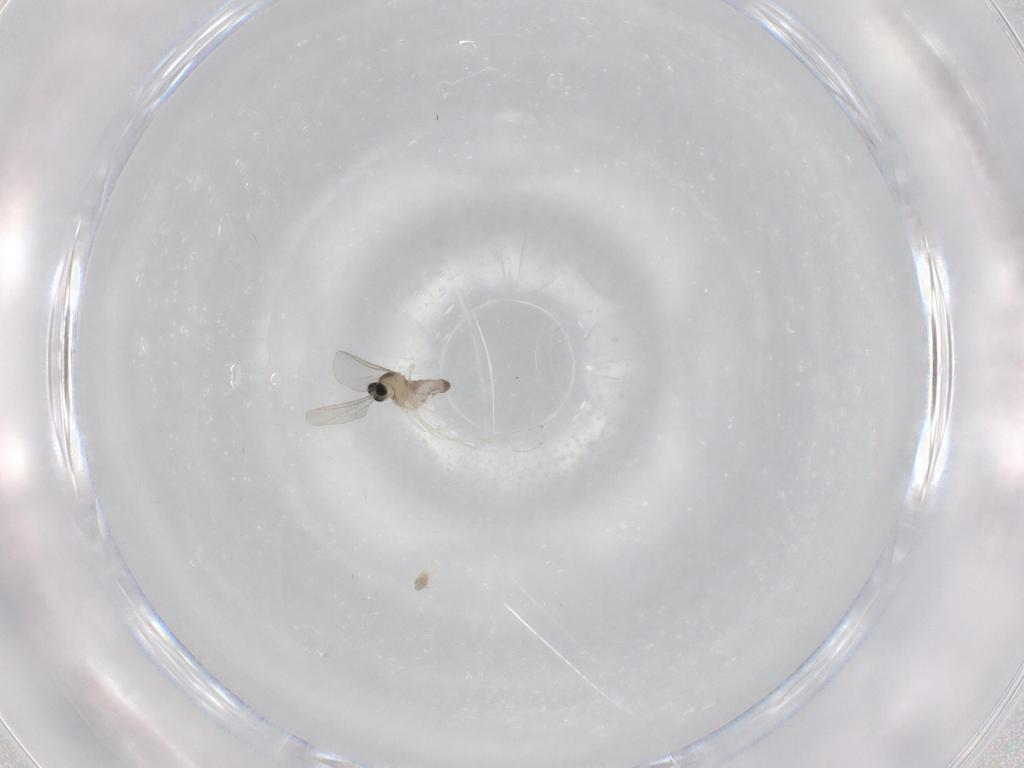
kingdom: Animalia
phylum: Arthropoda
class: Insecta
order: Diptera
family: Cecidomyiidae
